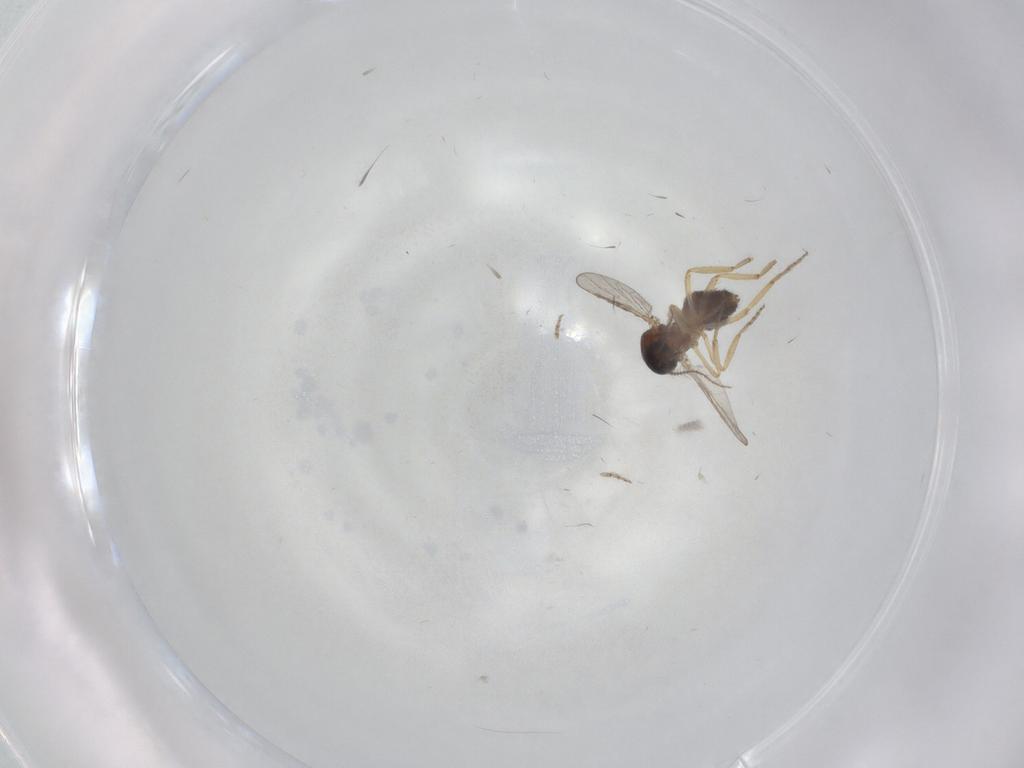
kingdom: Animalia
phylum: Arthropoda
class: Insecta
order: Diptera
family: Ceratopogonidae
